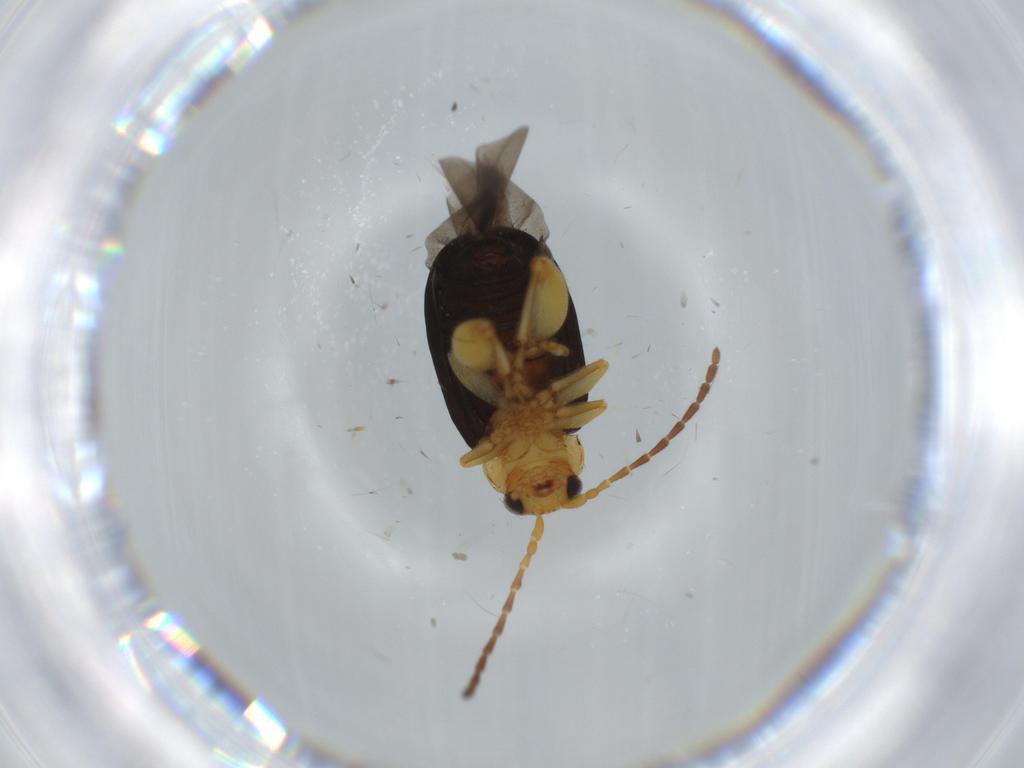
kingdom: Animalia
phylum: Arthropoda
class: Insecta
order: Coleoptera
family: Chrysomelidae
